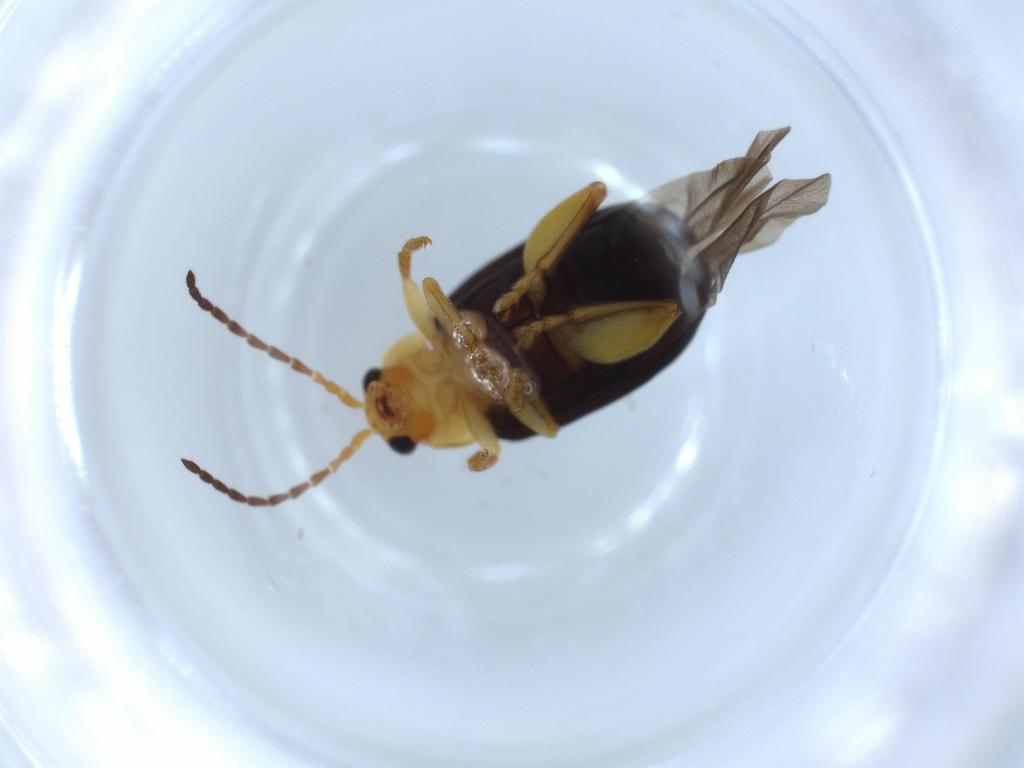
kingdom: Animalia
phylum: Arthropoda
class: Insecta
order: Coleoptera
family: Chrysomelidae
